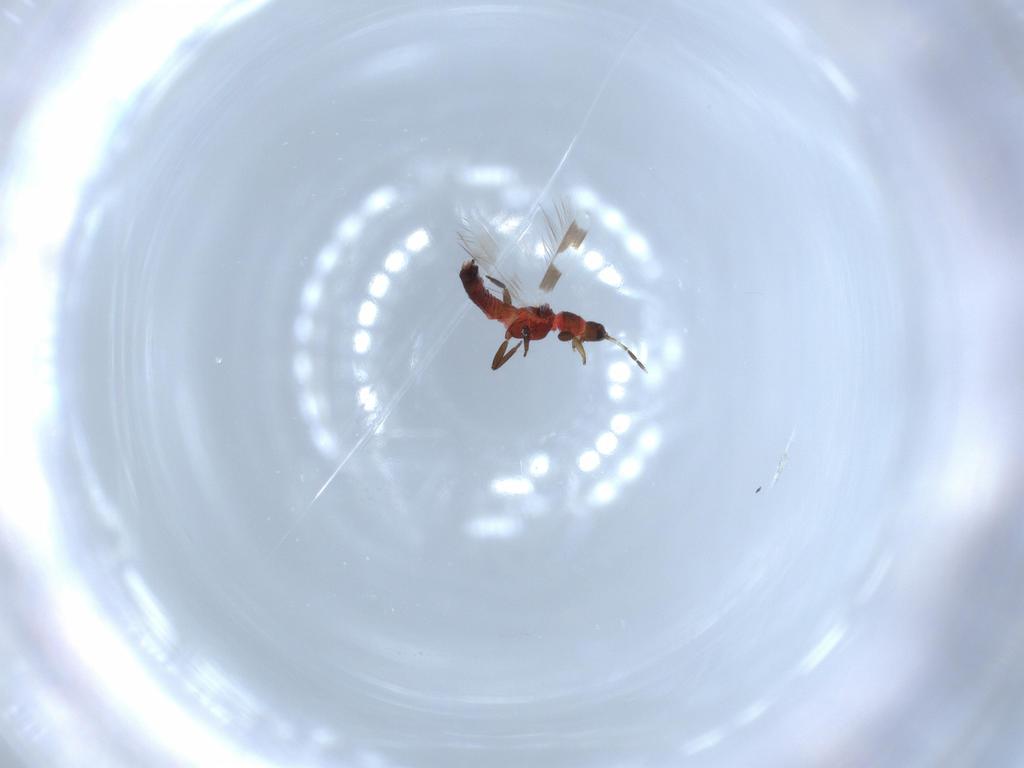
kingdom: Animalia
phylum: Arthropoda
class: Insecta
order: Thysanoptera
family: Aeolothripidae
